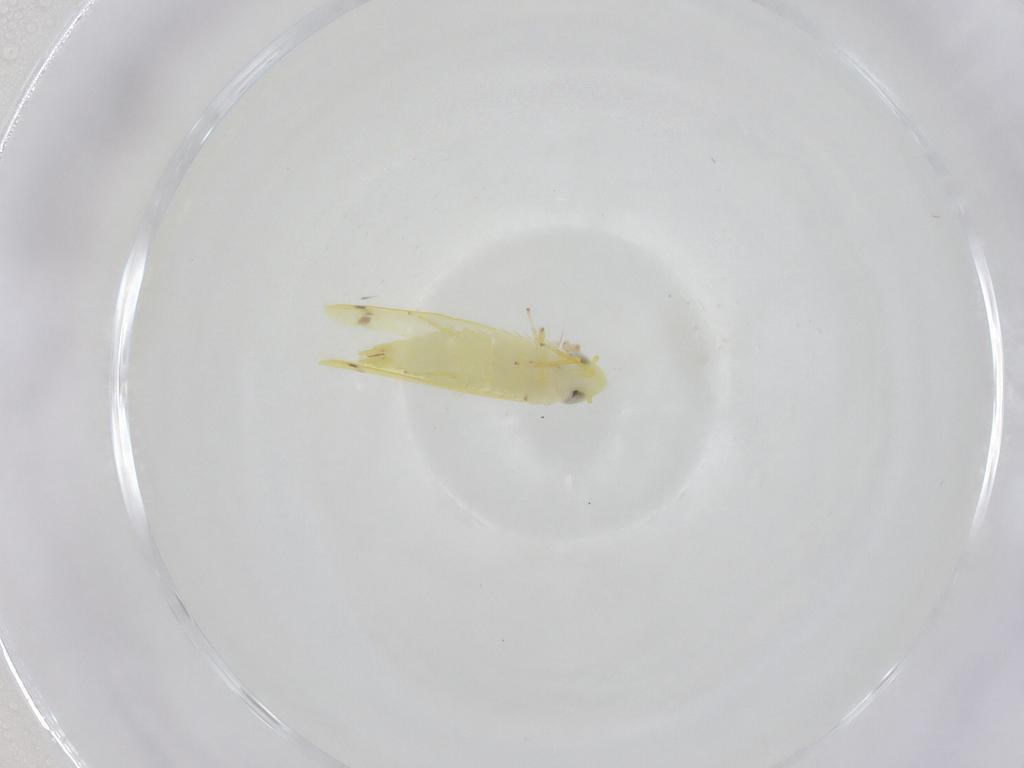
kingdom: Animalia
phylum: Arthropoda
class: Insecta
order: Hemiptera
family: Cicadellidae
